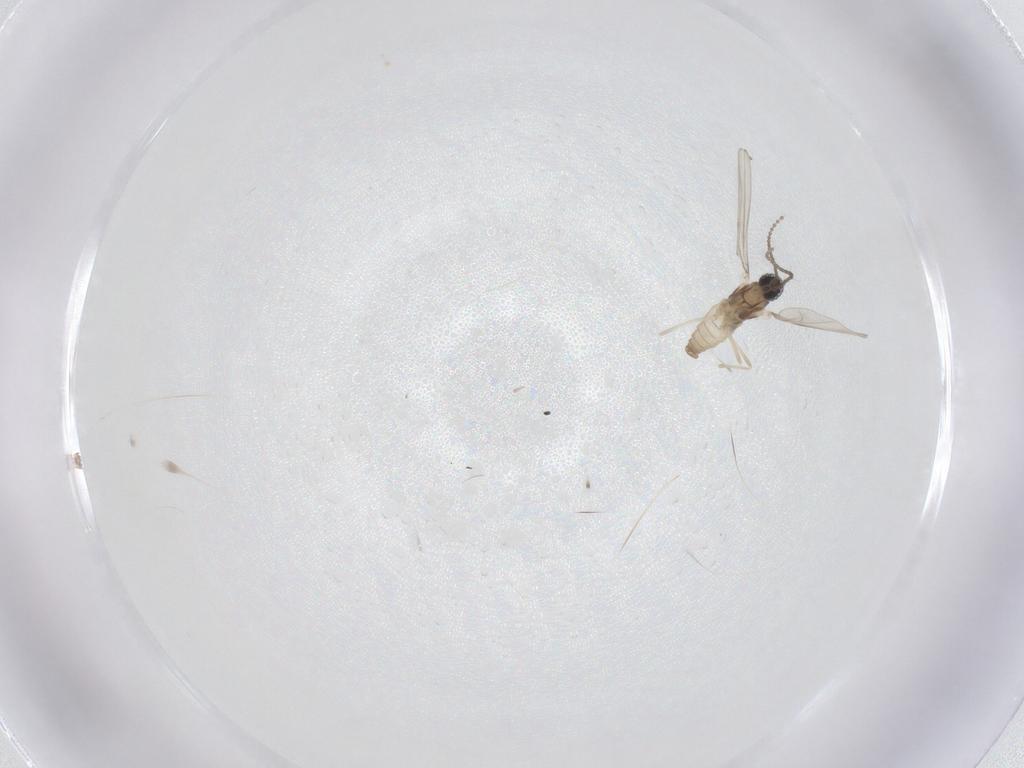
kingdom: Animalia
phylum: Arthropoda
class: Insecta
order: Diptera
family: Cecidomyiidae
